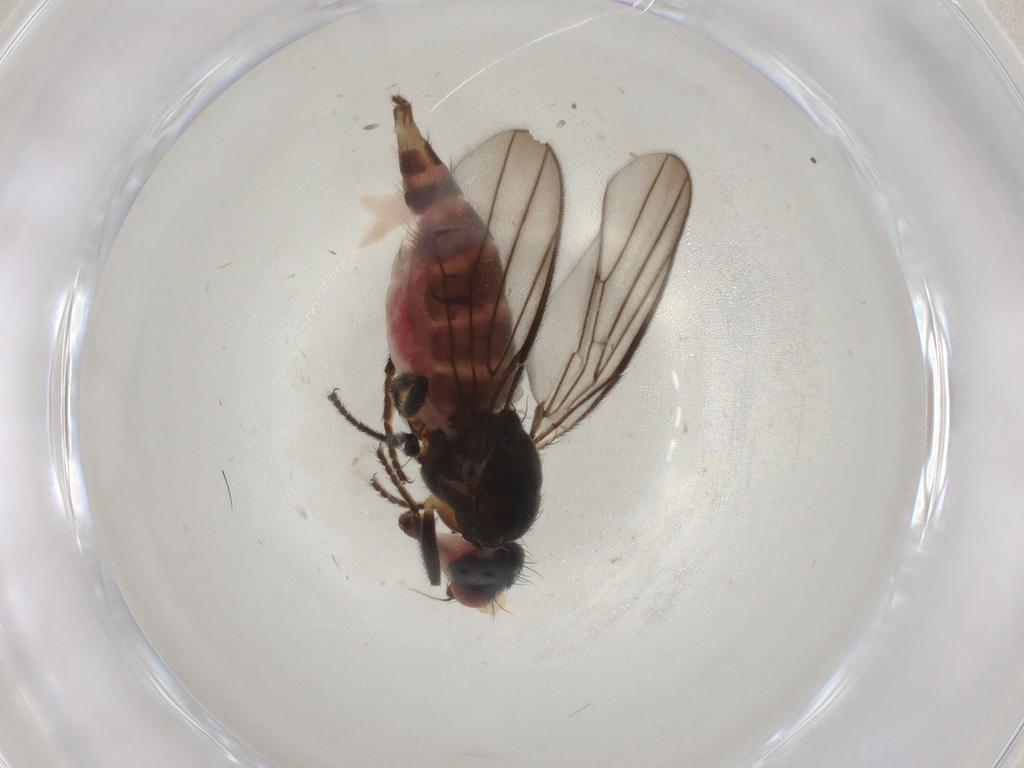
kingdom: Animalia
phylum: Arthropoda
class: Insecta
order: Diptera
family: Chloropidae
